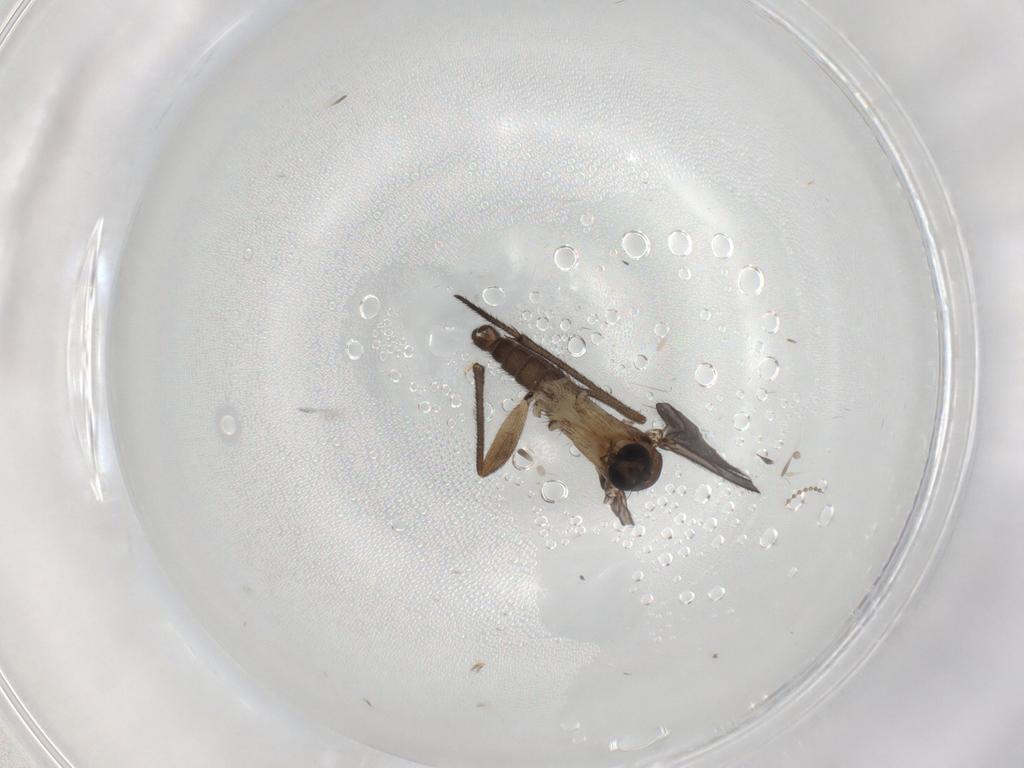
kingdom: Animalia
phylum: Arthropoda
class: Insecta
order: Diptera
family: Cecidomyiidae
